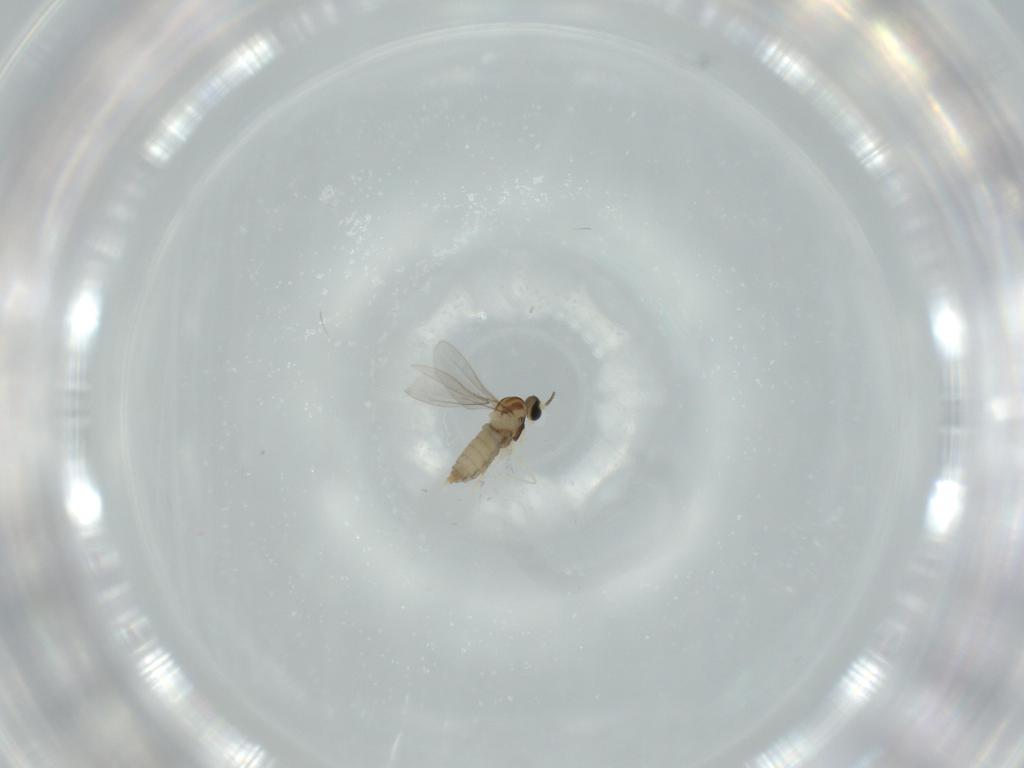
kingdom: Animalia
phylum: Arthropoda
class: Insecta
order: Diptera
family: Cecidomyiidae
